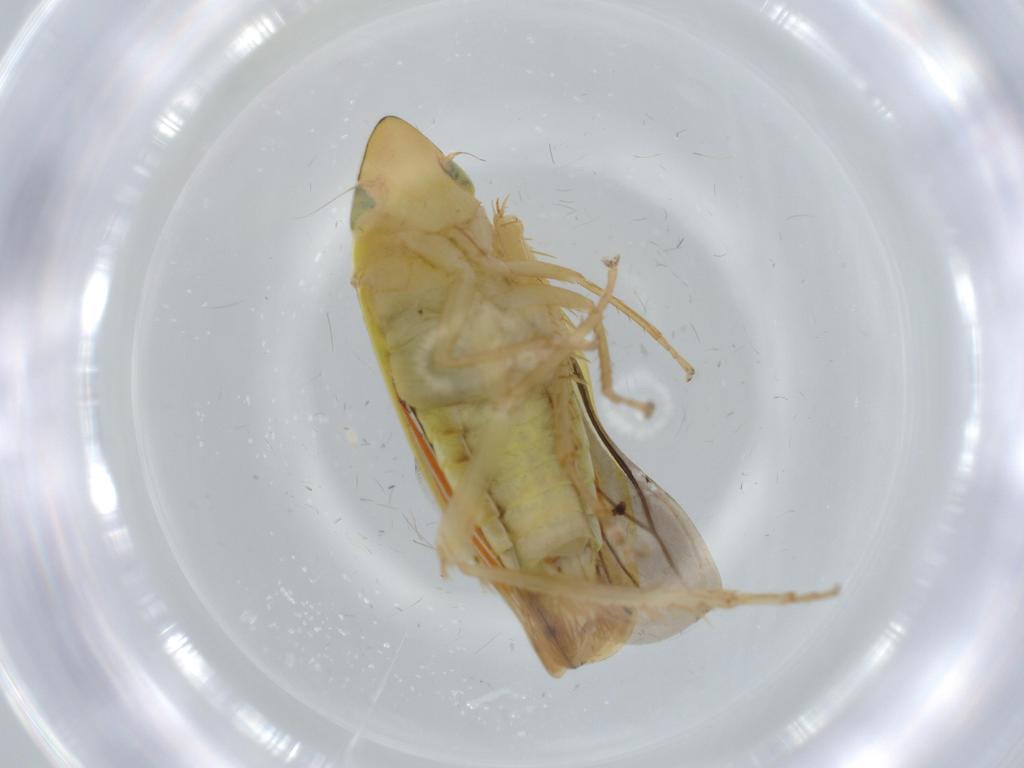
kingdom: Animalia
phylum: Arthropoda
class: Insecta
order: Hemiptera
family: Cicadellidae
